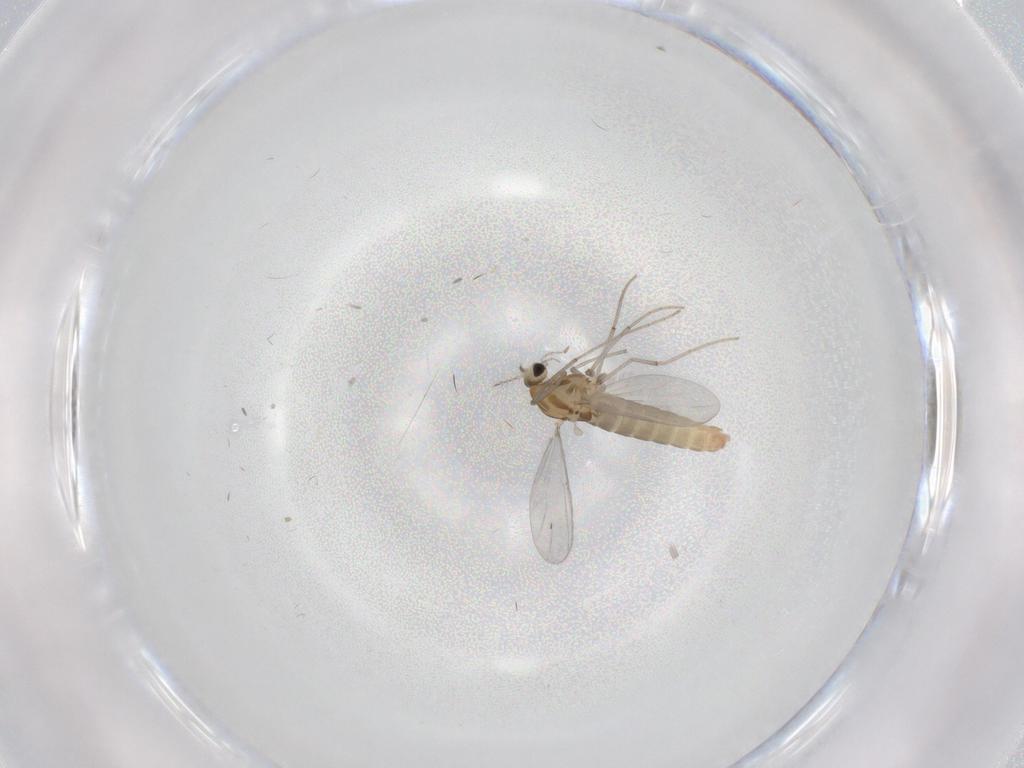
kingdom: Animalia
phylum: Arthropoda
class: Insecta
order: Diptera
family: Chironomidae
